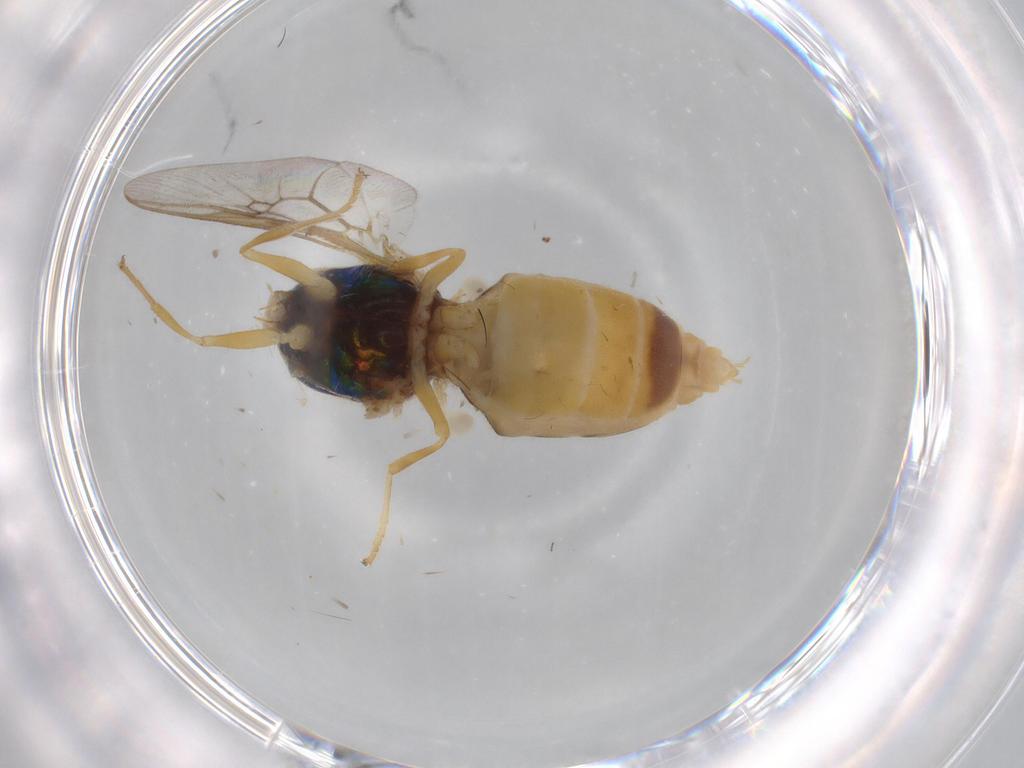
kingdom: Animalia
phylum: Arthropoda
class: Insecta
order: Diptera
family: Stratiomyidae
